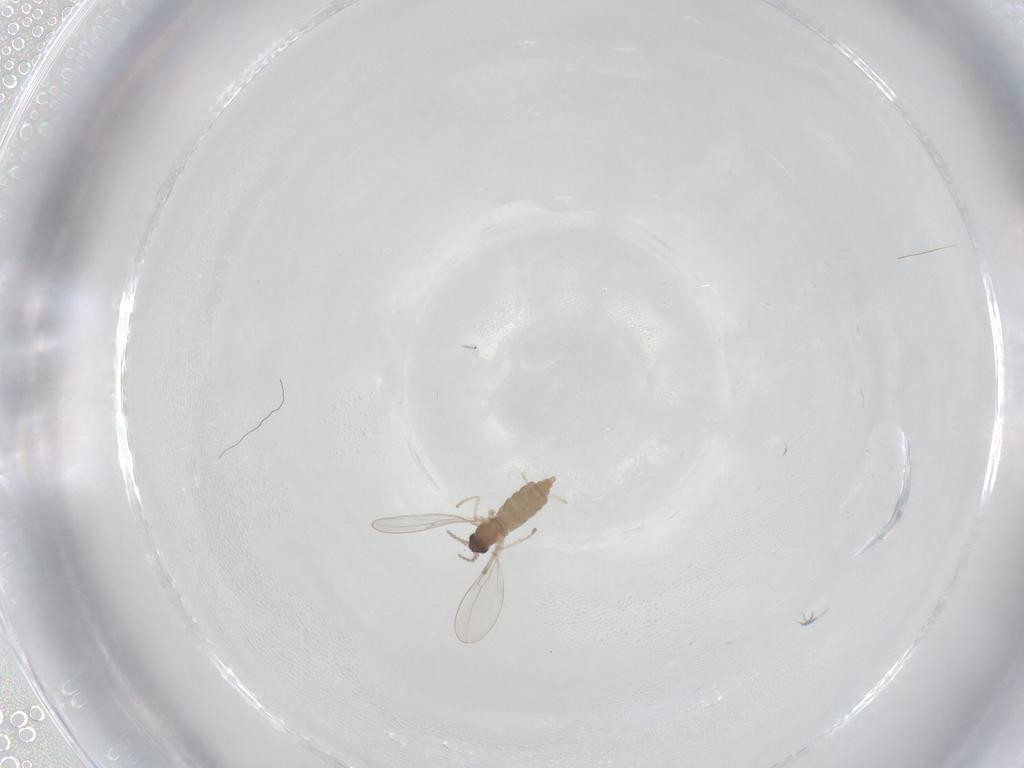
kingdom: Animalia
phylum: Arthropoda
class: Insecta
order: Diptera
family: Cecidomyiidae
